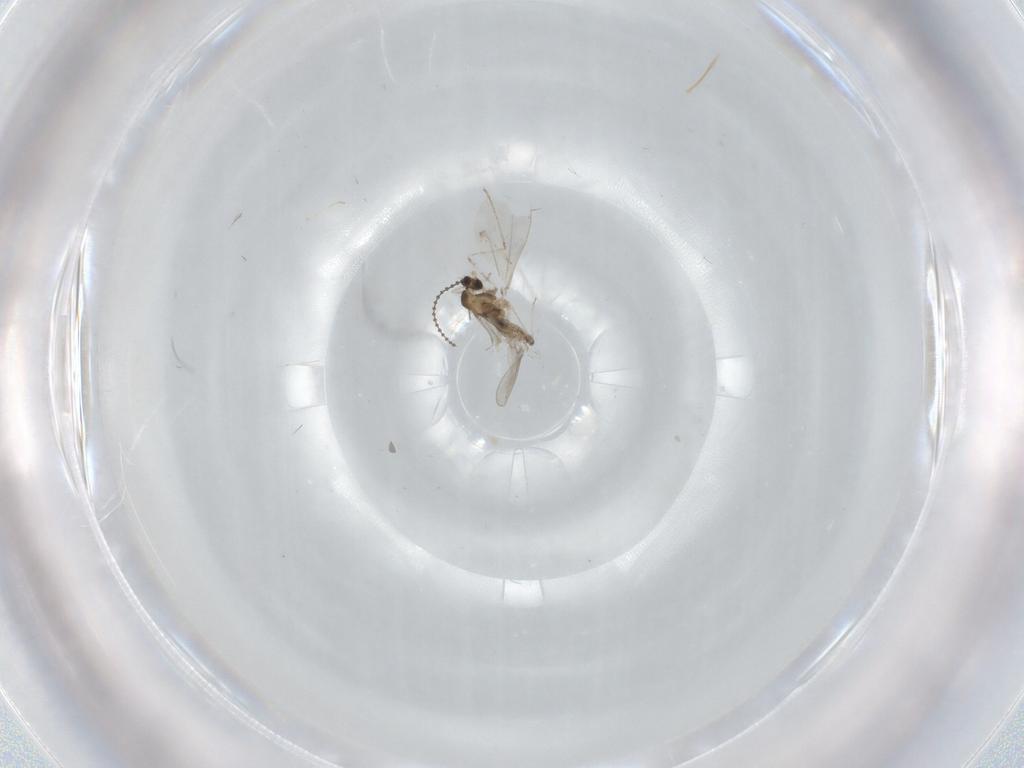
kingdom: Animalia
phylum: Arthropoda
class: Insecta
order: Diptera
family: Cecidomyiidae
